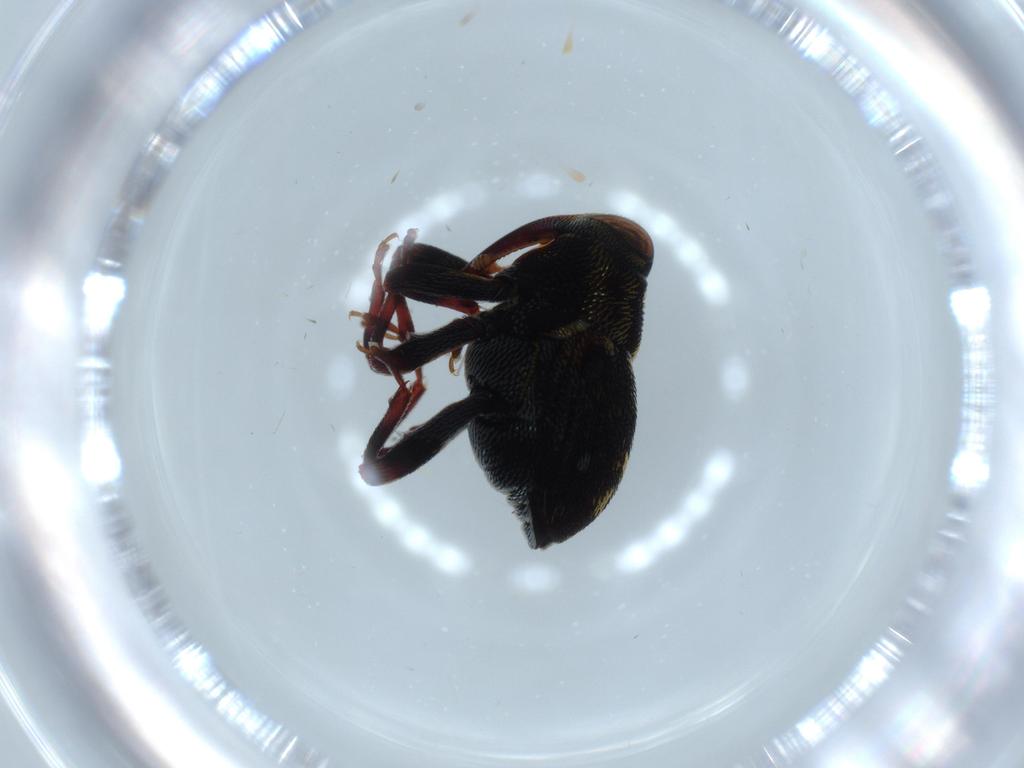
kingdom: Animalia
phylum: Arthropoda
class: Insecta
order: Coleoptera
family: Chrysomelidae
